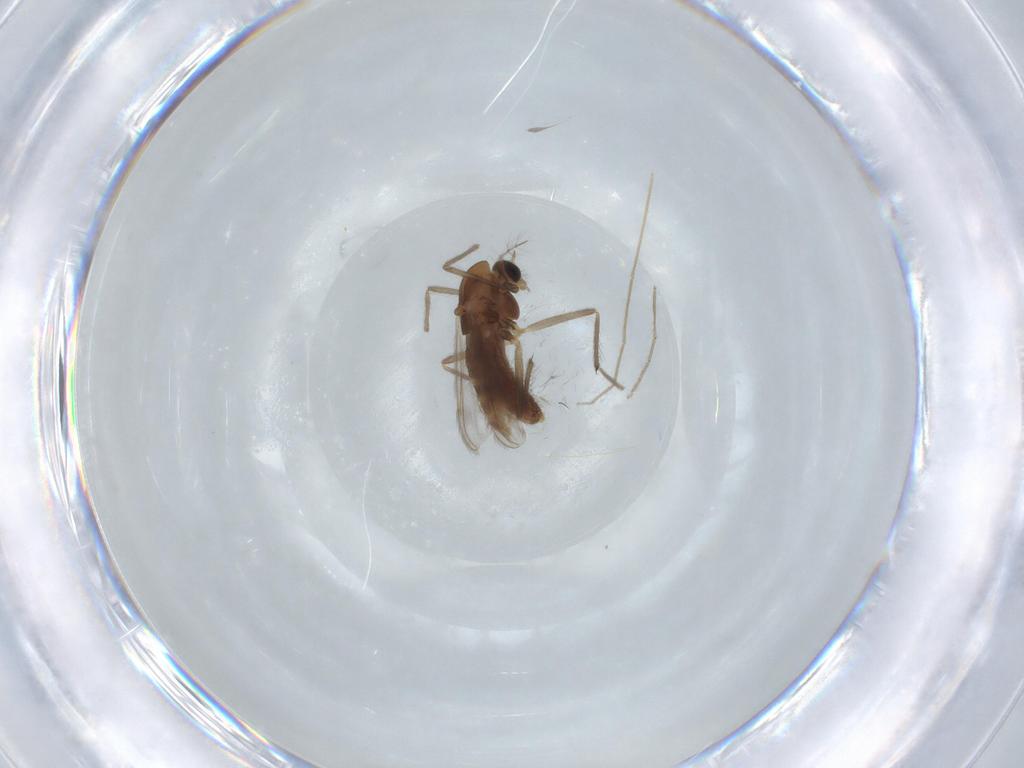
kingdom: Animalia
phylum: Arthropoda
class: Insecta
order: Diptera
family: Chironomidae
